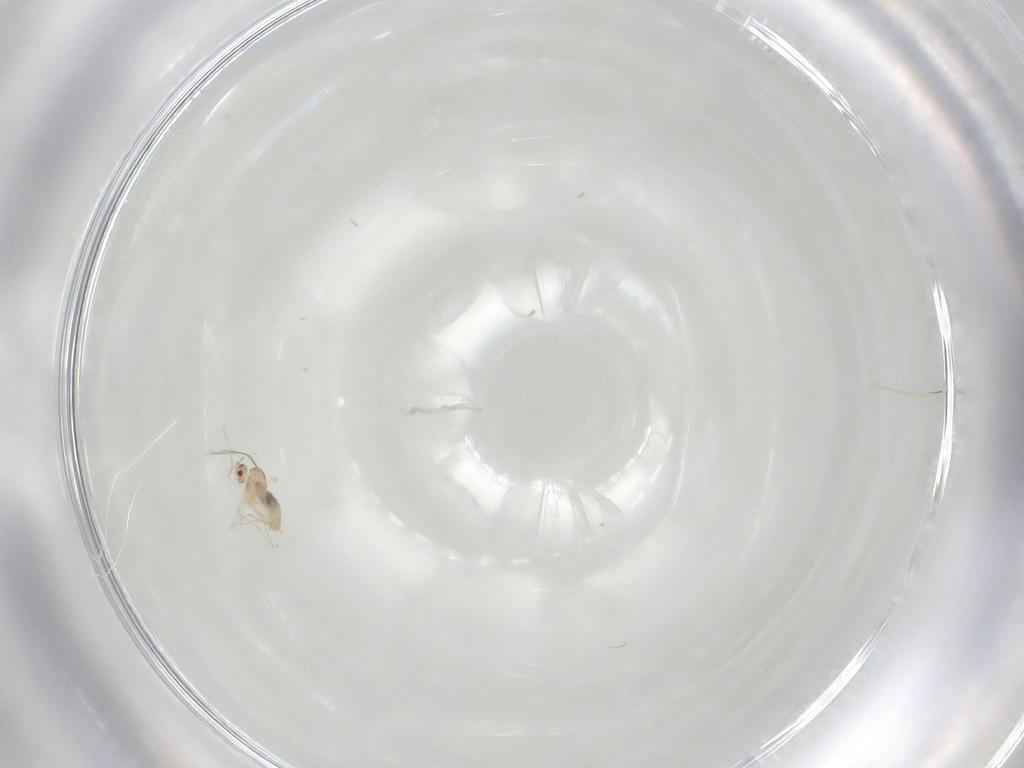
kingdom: Animalia
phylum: Arthropoda
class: Insecta
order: Diptera
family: Cecidomyiidae
